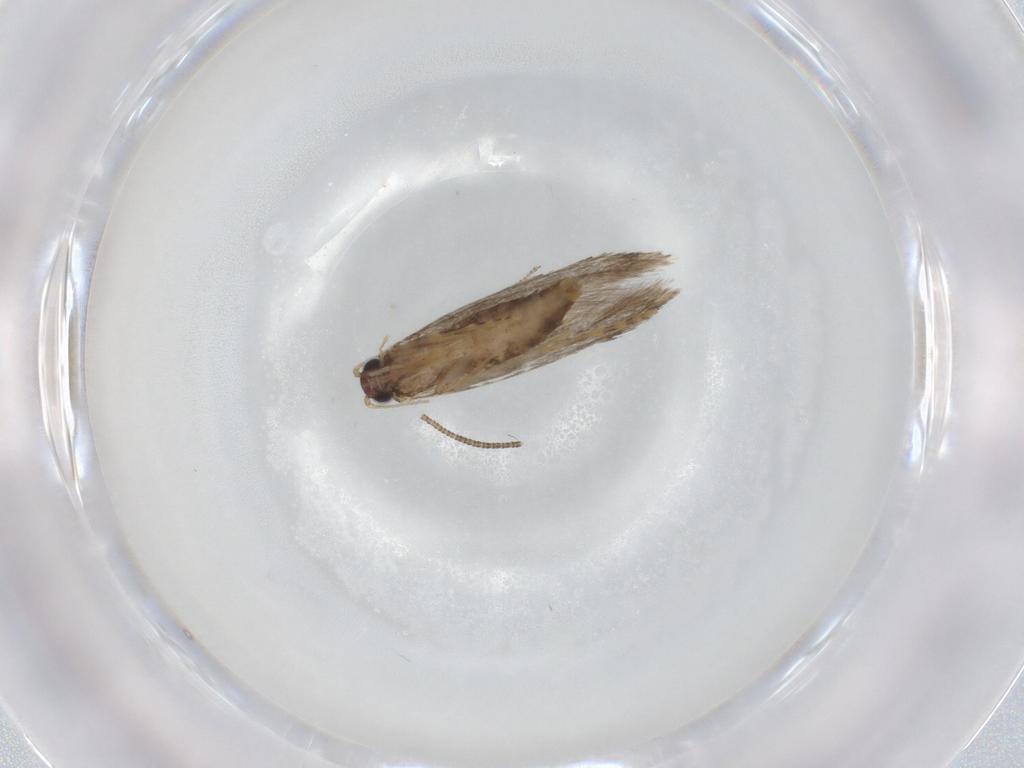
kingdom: Animalia
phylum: Arthropoda
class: Insecta
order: Lepidoptera
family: Autostichidae
